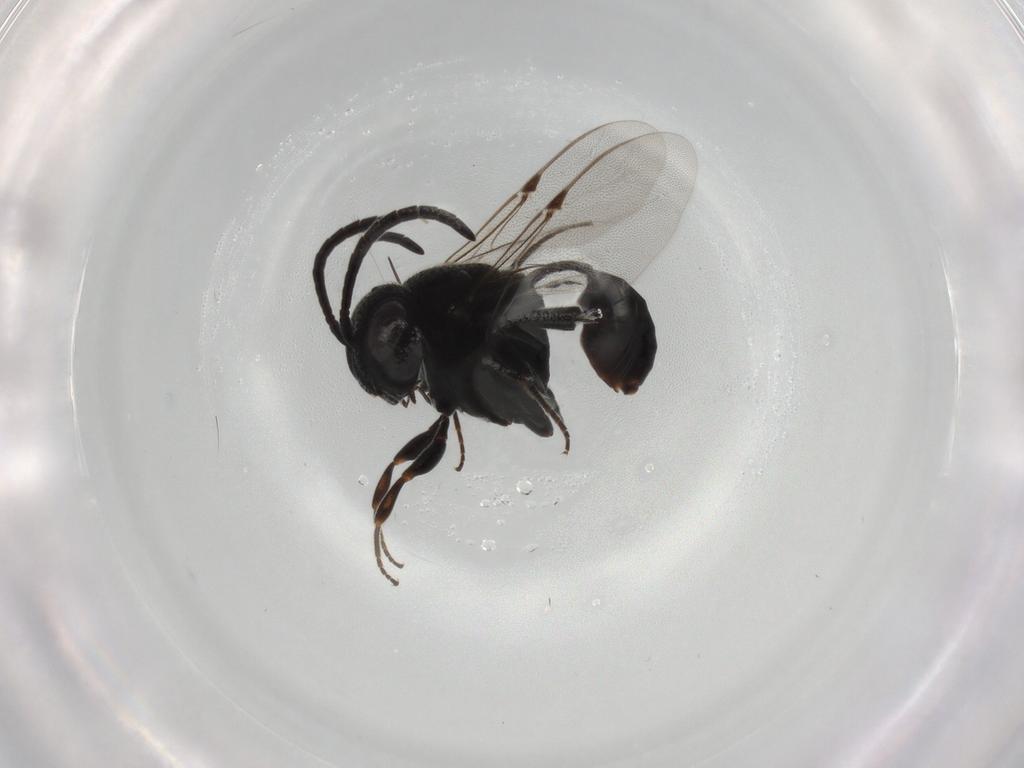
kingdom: Animalia
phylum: Arthropoda
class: Insecta
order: Hymenoptera
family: Evaniidae
